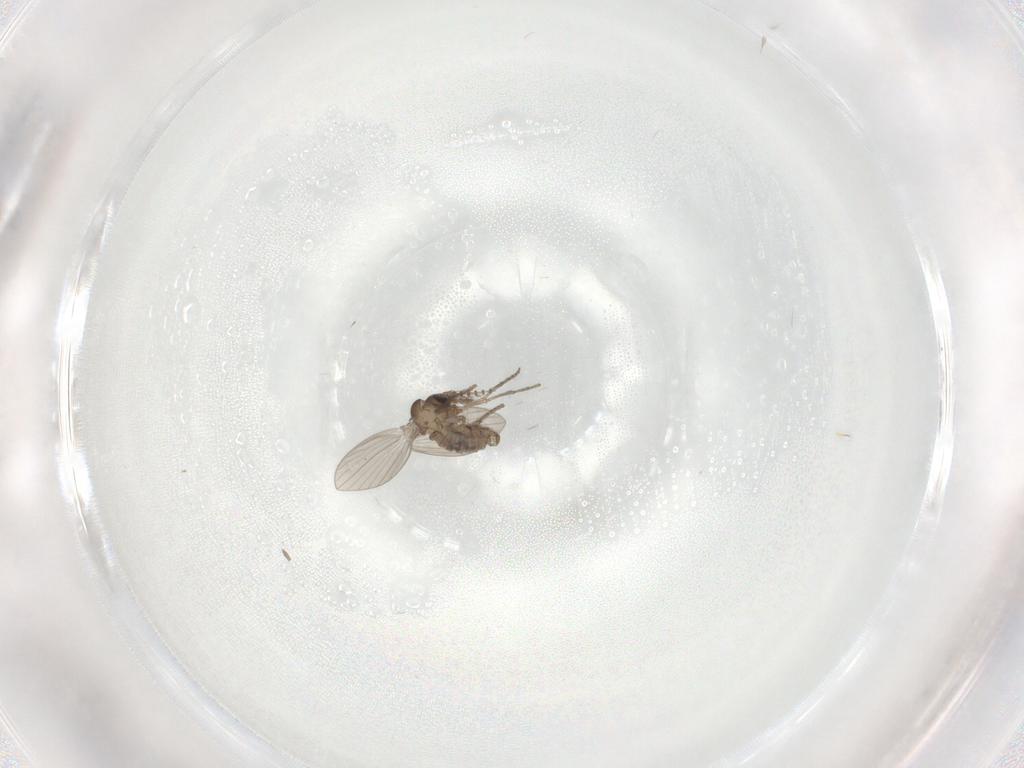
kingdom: Animalia
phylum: Arthropoda
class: Insecta
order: Diptera
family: Psychodidae
